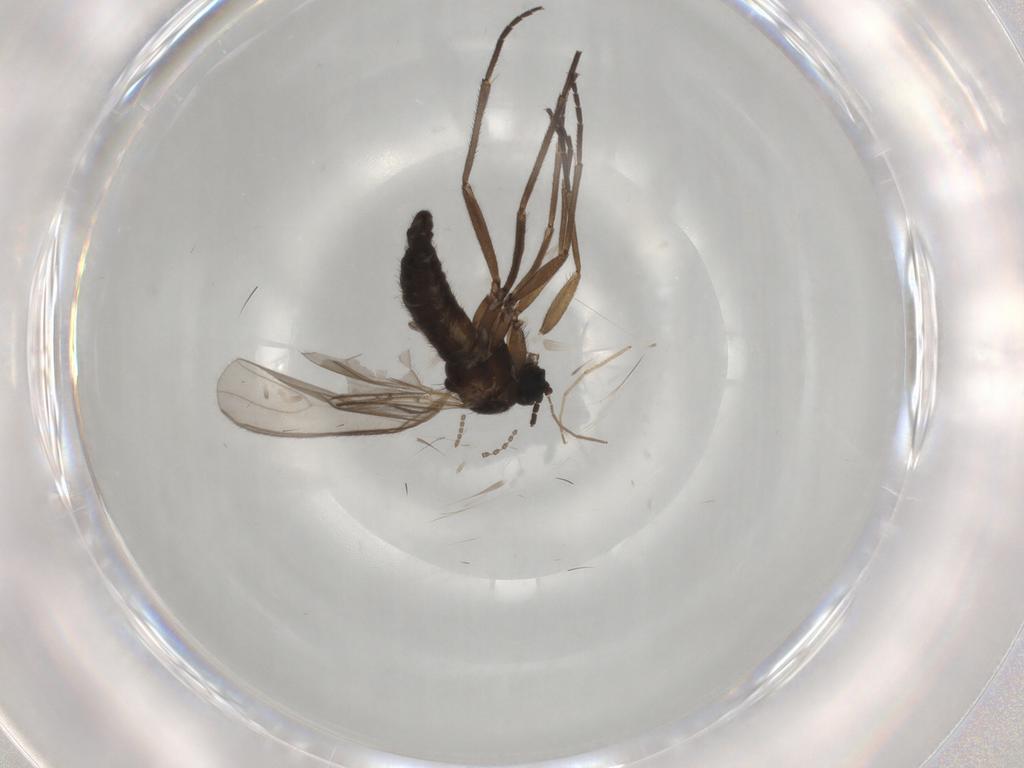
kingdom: Animalia
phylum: Arthropoda
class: Insecta
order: Diptera
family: Sciaridae
